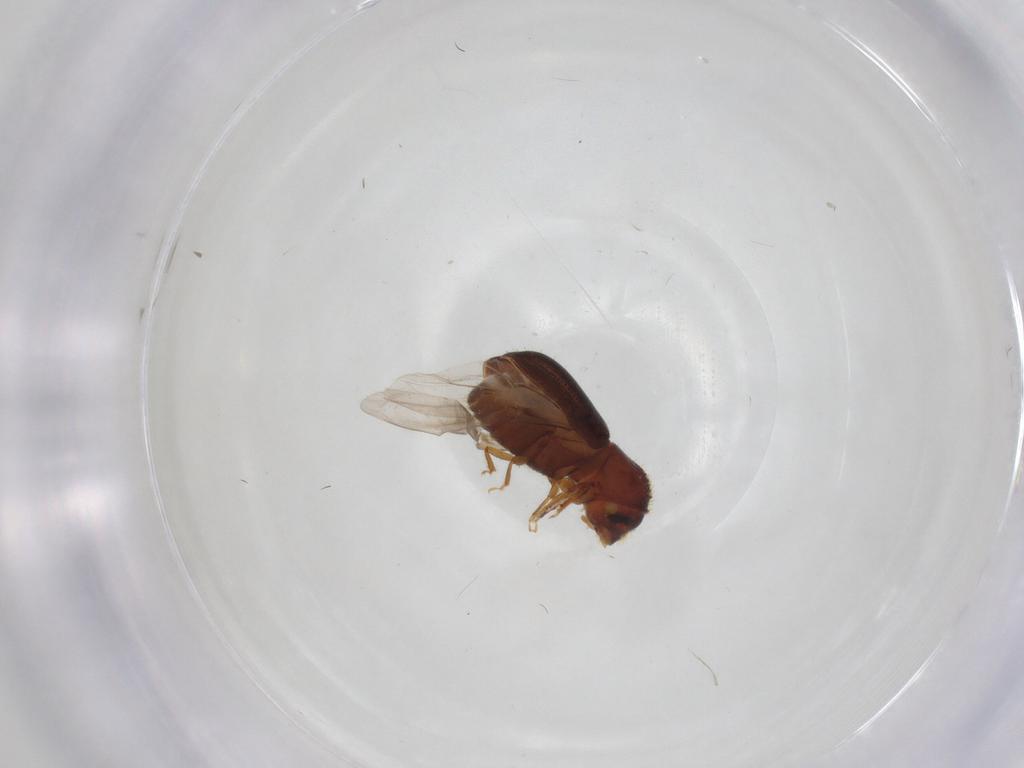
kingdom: Animalia
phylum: Arthropoda
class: Insecta
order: Coleoptera
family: Curculionidae
